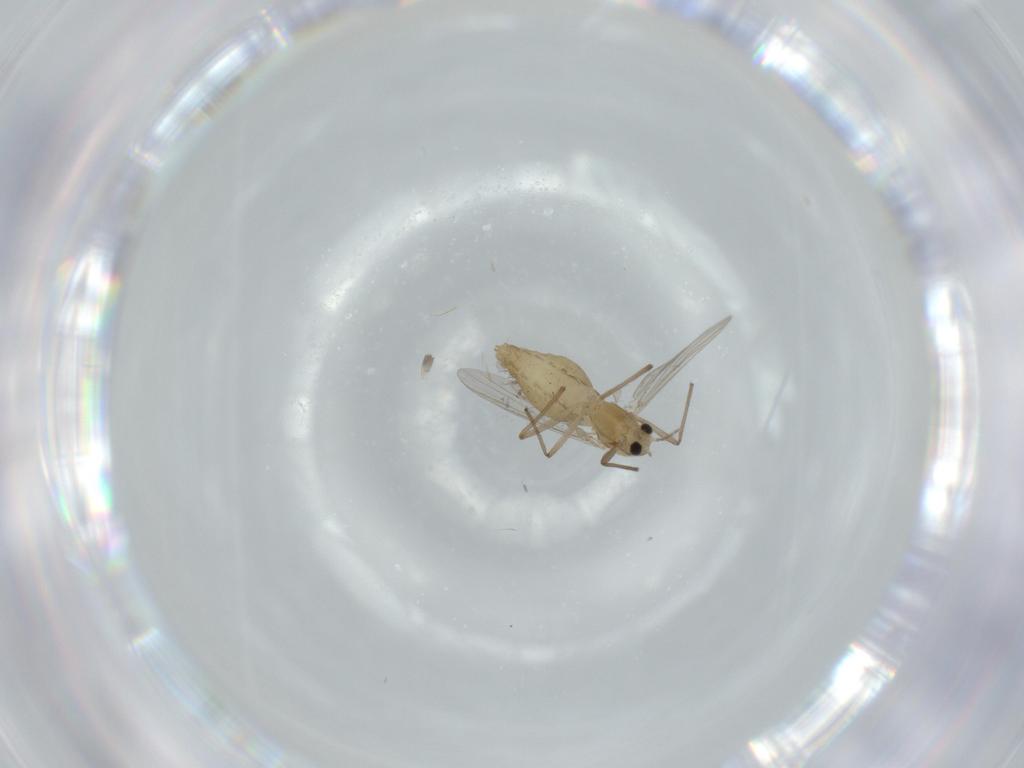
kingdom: Animalia
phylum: Arthropoda
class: Insecta
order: Diptera
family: Chironomidae
